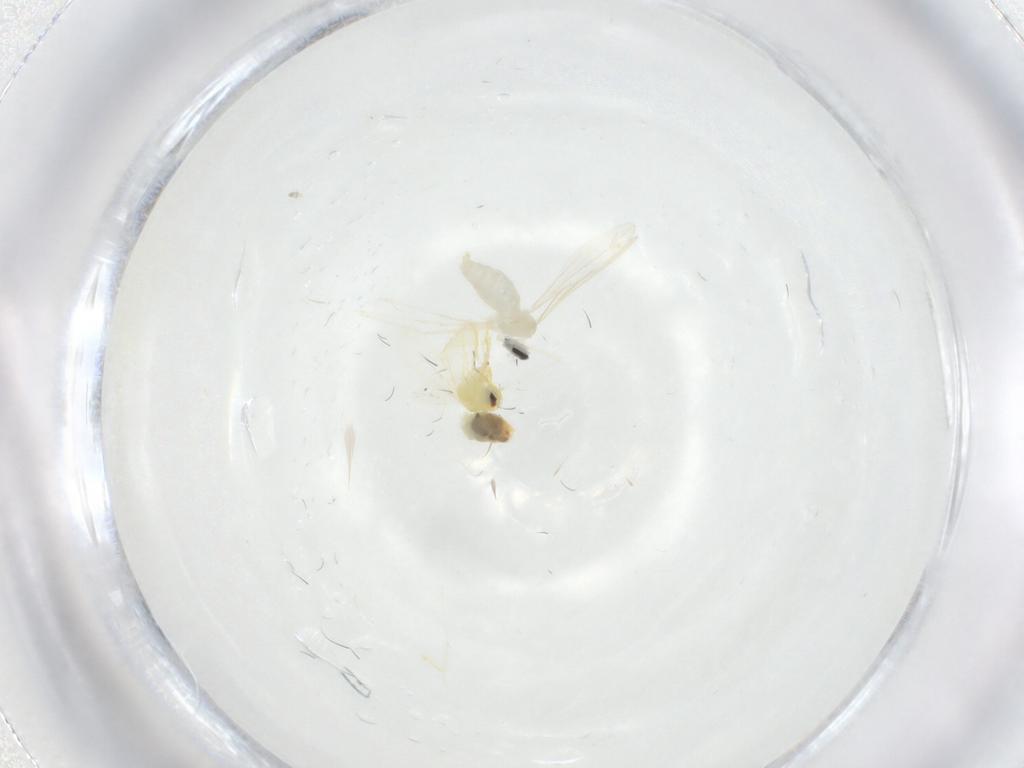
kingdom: Animalia
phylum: Arthropoda
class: Insecta
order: Diptera
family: Cecidomyiidae
